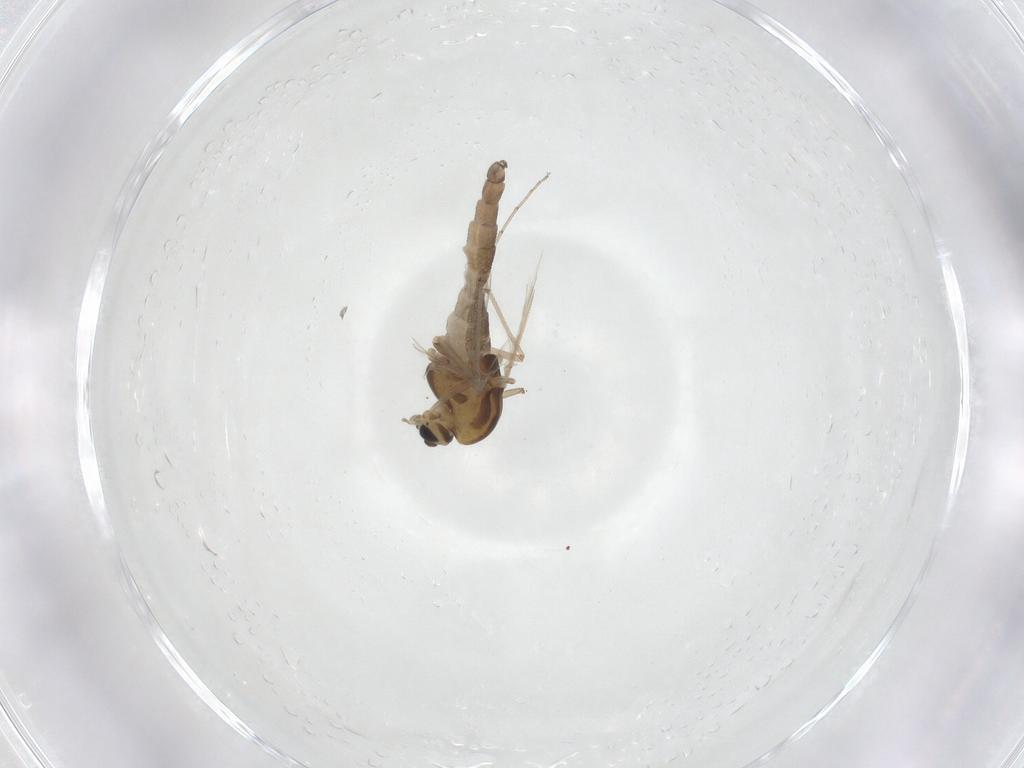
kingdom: Animalia
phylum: Arthropoda
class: Insecta
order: Diptera
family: Chironomidae
